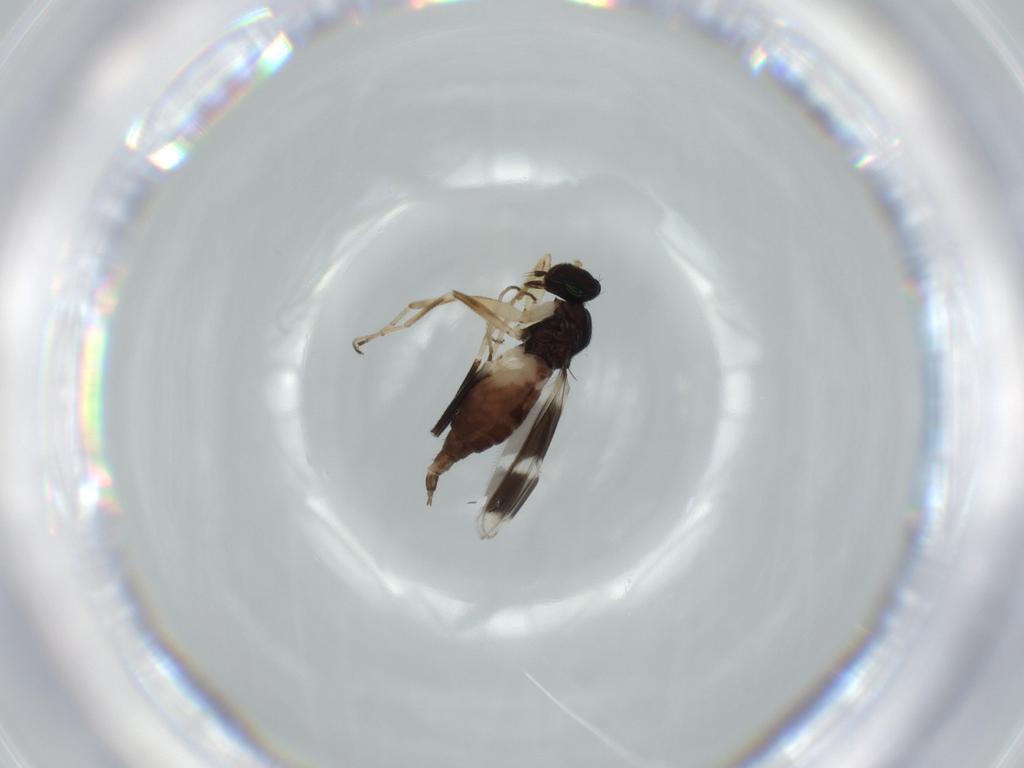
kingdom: Animalia
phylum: Arthropoda
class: Insecta
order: Diptera
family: Hybotidae
